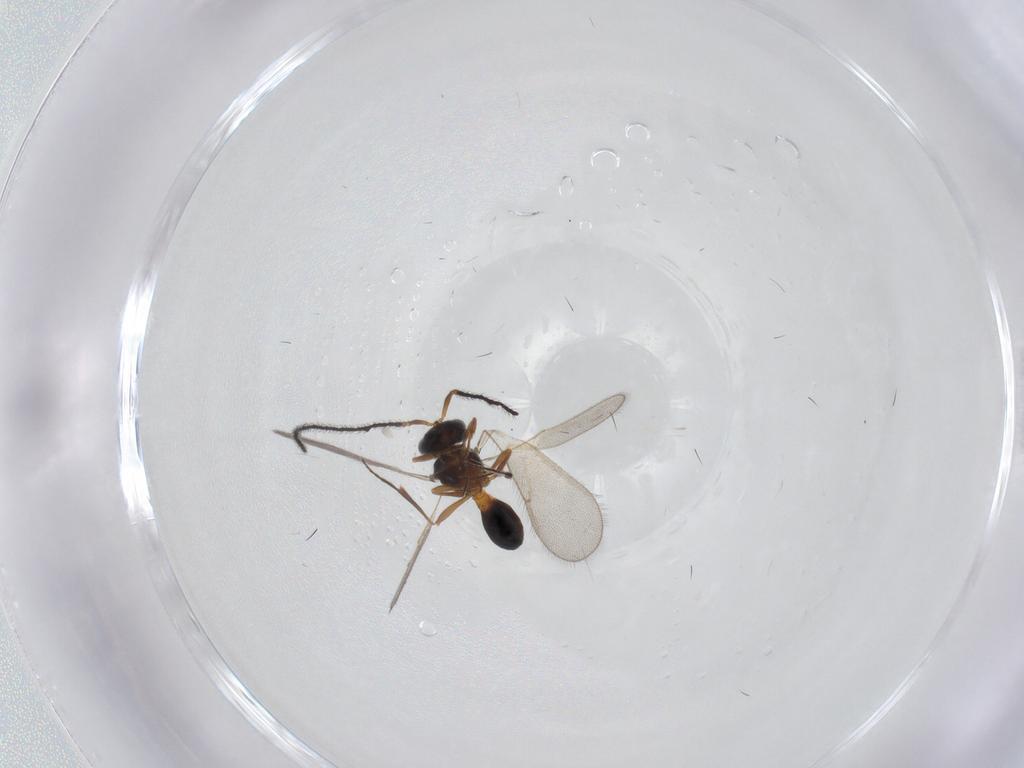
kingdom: Animalia
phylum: Arthropoda
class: Insecta
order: Hymenoptera
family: Scelionidae
